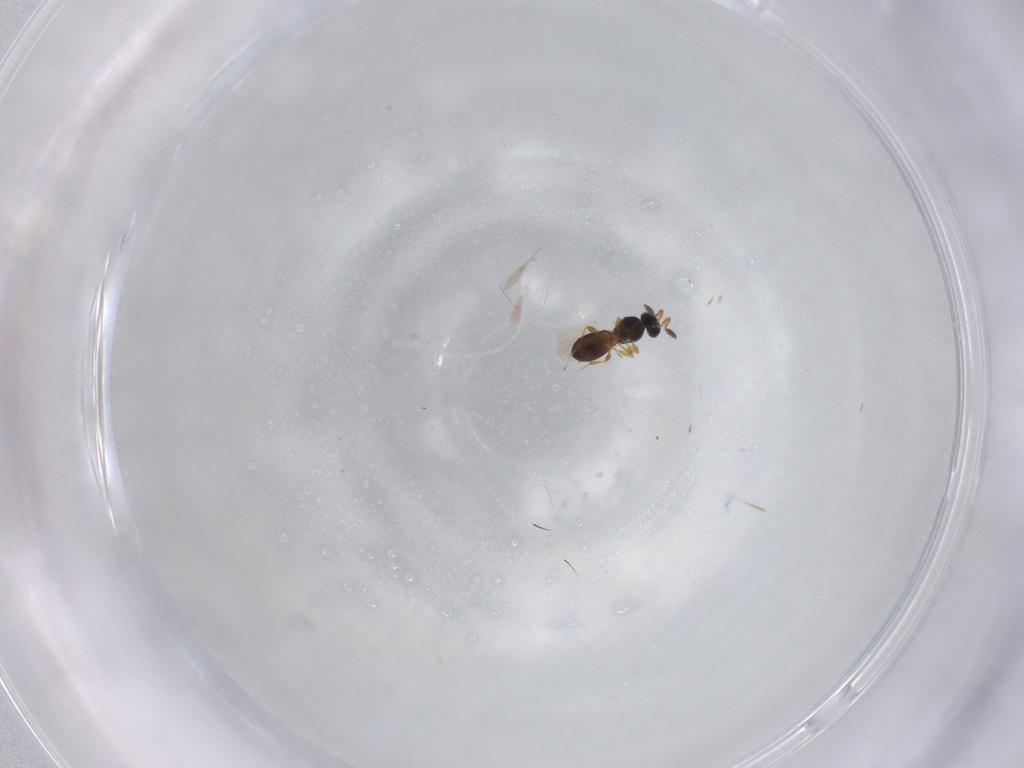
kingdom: Animalia
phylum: Arthropoda
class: Insecta
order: Hymenoptera
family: Platygastridae
